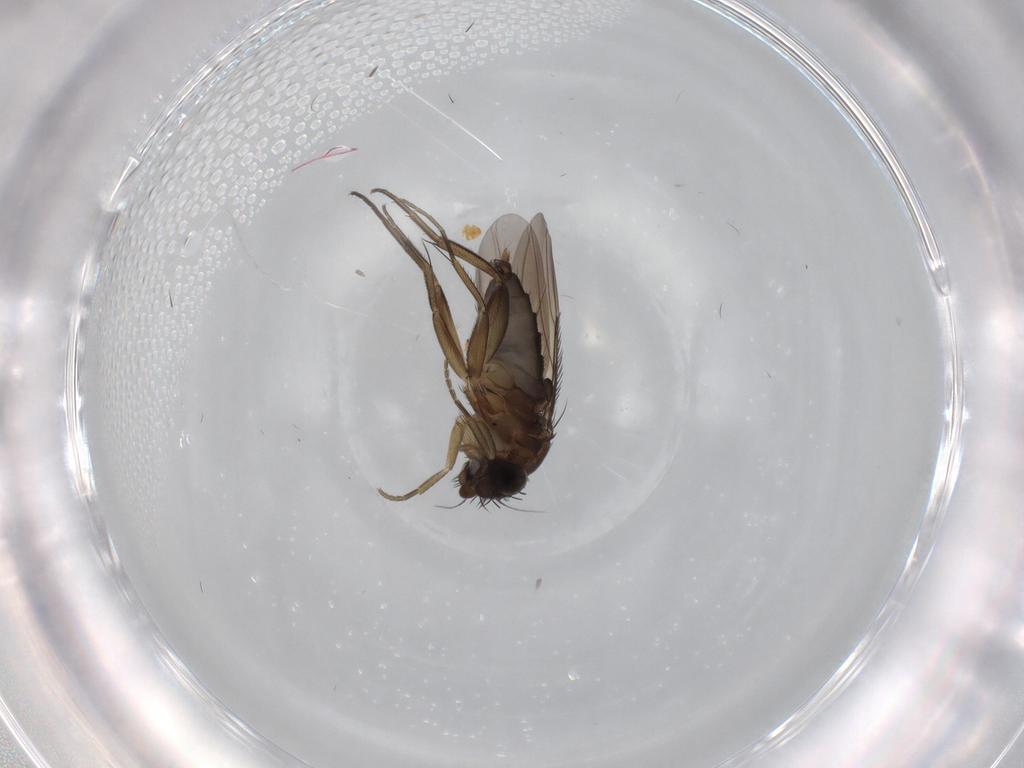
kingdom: Animalia
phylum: Arthropoda
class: Insecta
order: Diptera
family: Phoridae
